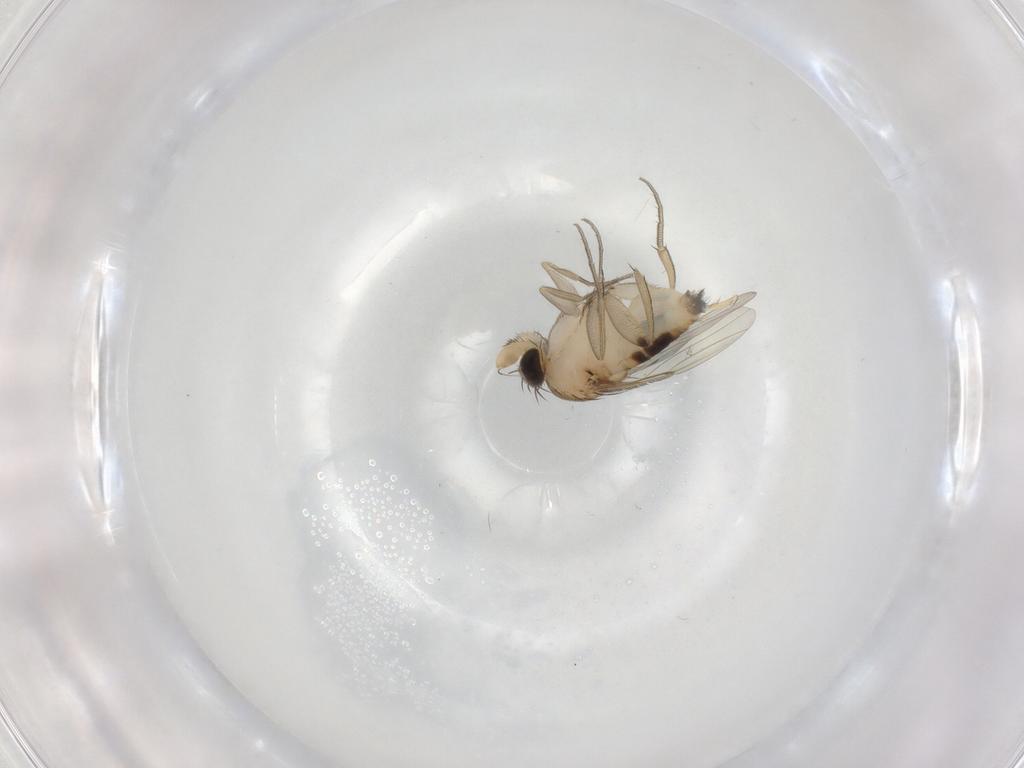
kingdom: Animalia
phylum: Arthropoda
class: Insecta
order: Diptera
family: Phoridae
